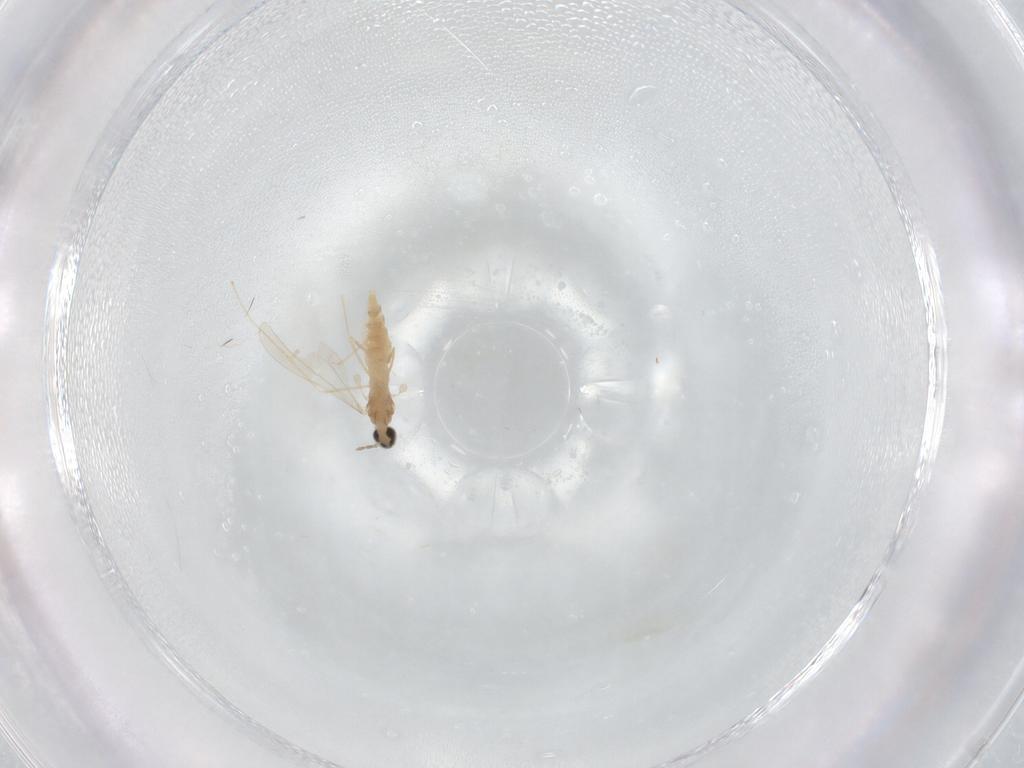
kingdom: Animalia
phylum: Arthropoda
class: Insecta
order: Diptera
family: Cecidomyiidae
